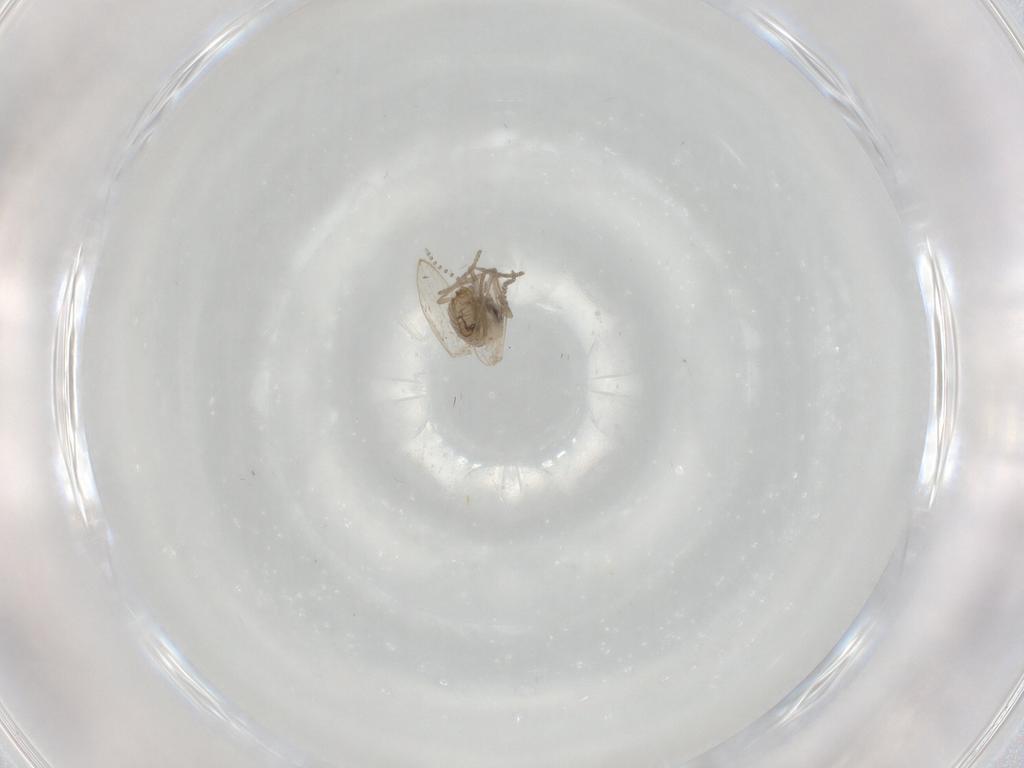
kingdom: Animalia
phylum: Arthropoda
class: Insecta
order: Diptera
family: Psychodidae
